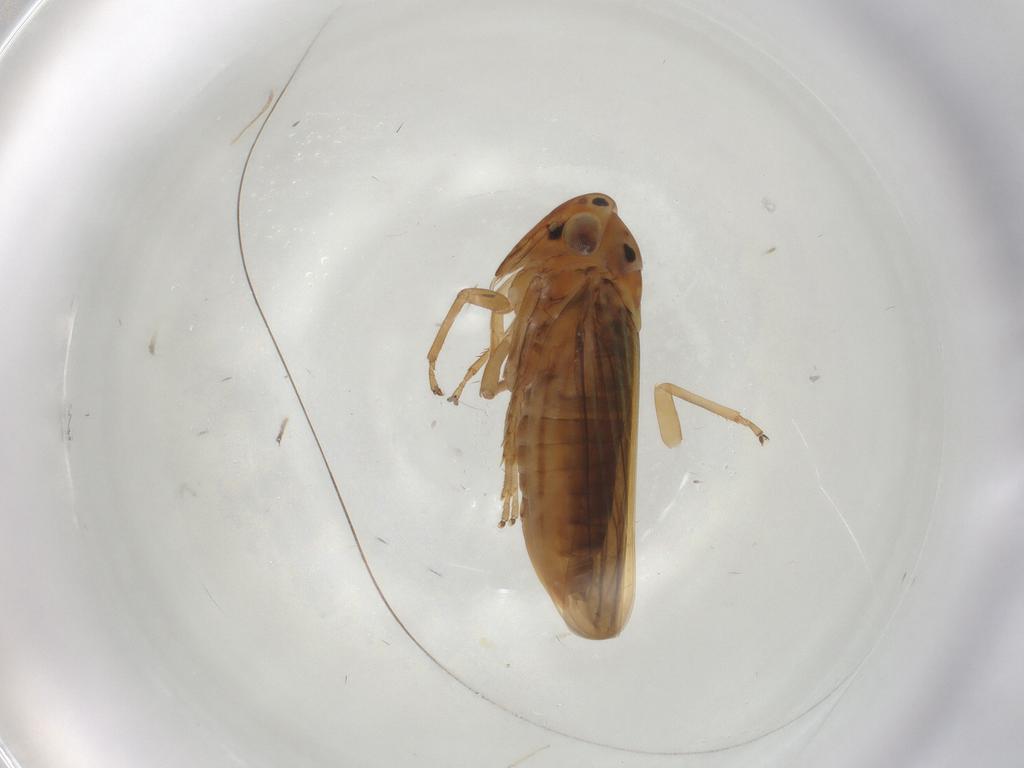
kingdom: Animalia
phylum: Arthropoda
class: Insecta
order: Hemiptera
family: Cicadellidae
